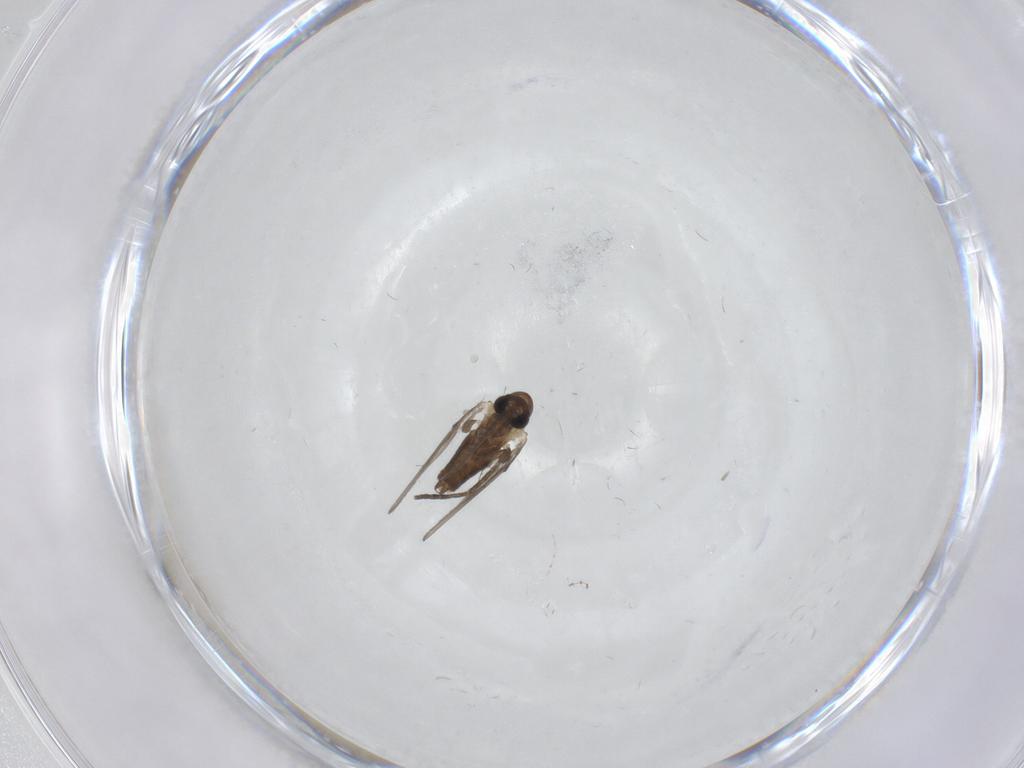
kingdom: Animalia
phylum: Arthropoda
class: Insecta
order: Diptera
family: Cecidomyiidae
